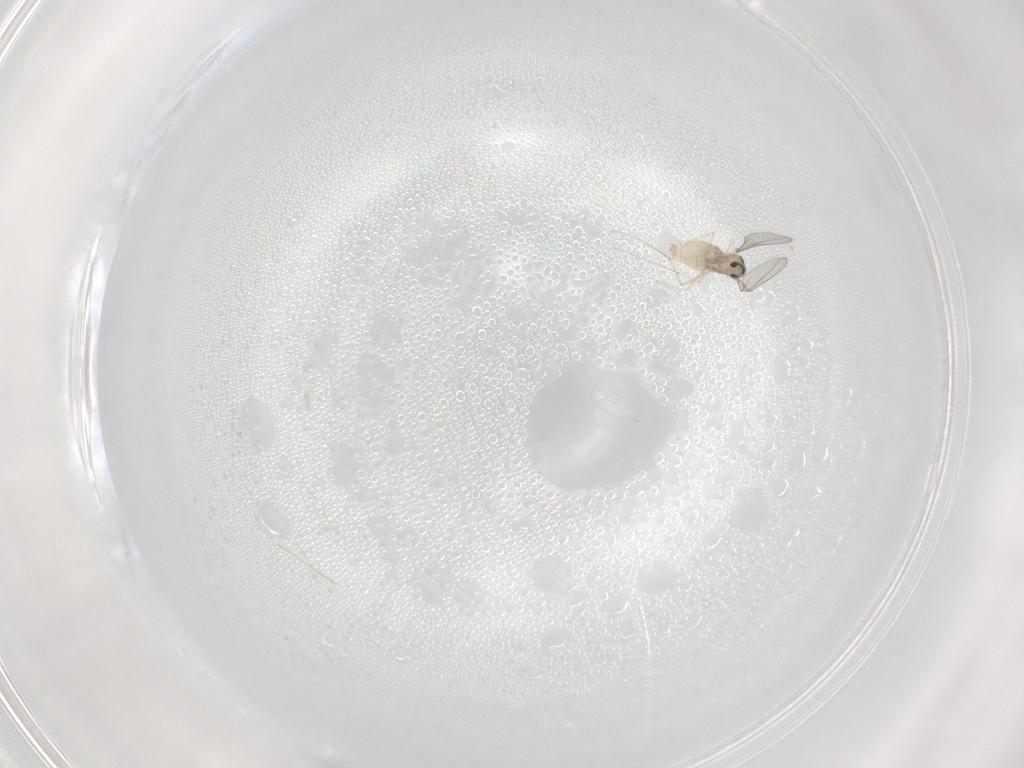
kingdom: Animalia
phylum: Arthropoda
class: Insecta
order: Diptera
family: Cecidomyiidae
